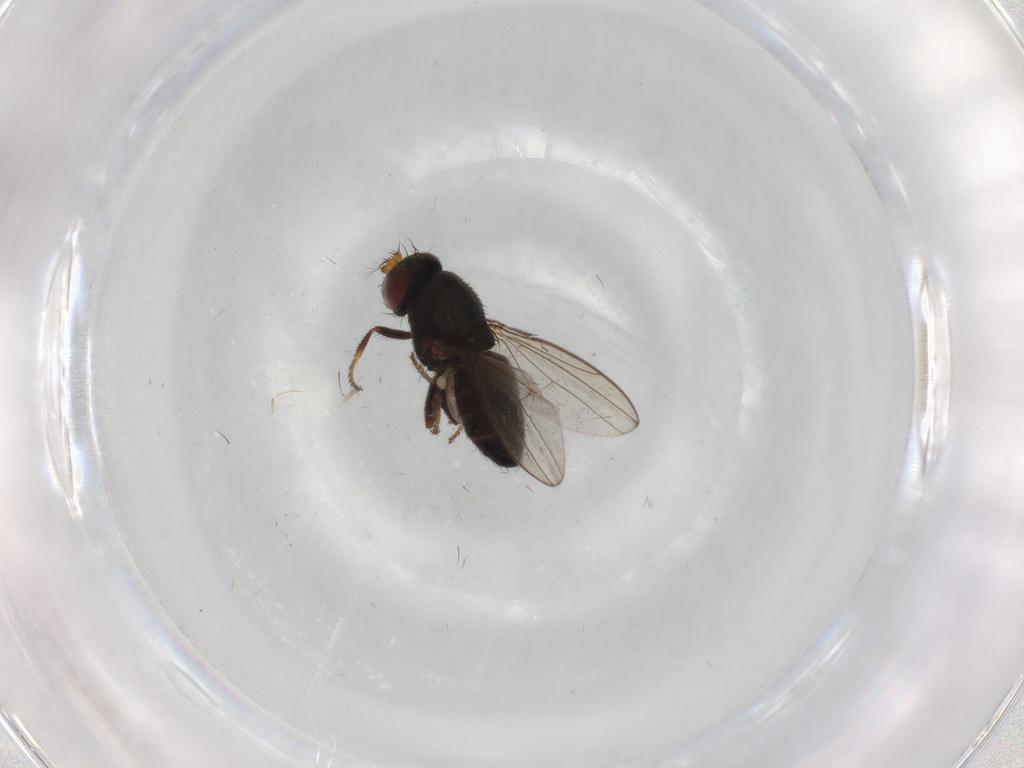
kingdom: Animalia
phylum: Arthropoda
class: Insecta
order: Diptera
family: Ephydridae
